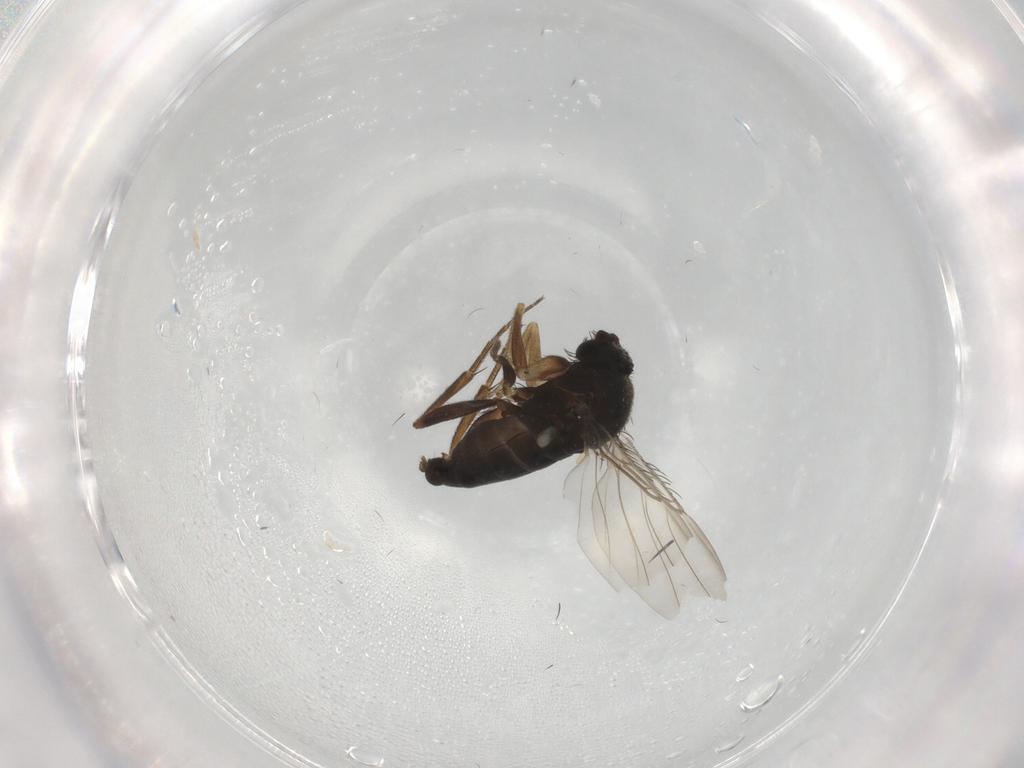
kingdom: Animalia
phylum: Arthropoda
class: Insecta
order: Diptera
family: Phoridae
